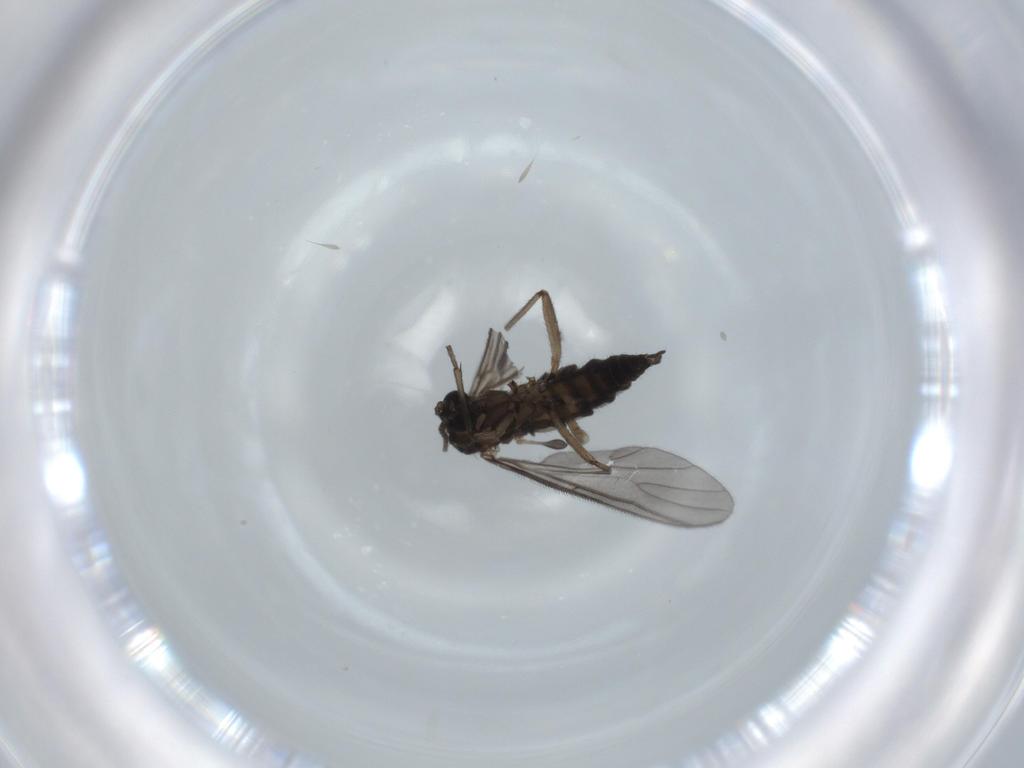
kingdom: Animalia
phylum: Arthropoda
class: Insecta
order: Diptera
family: Sciaridae
